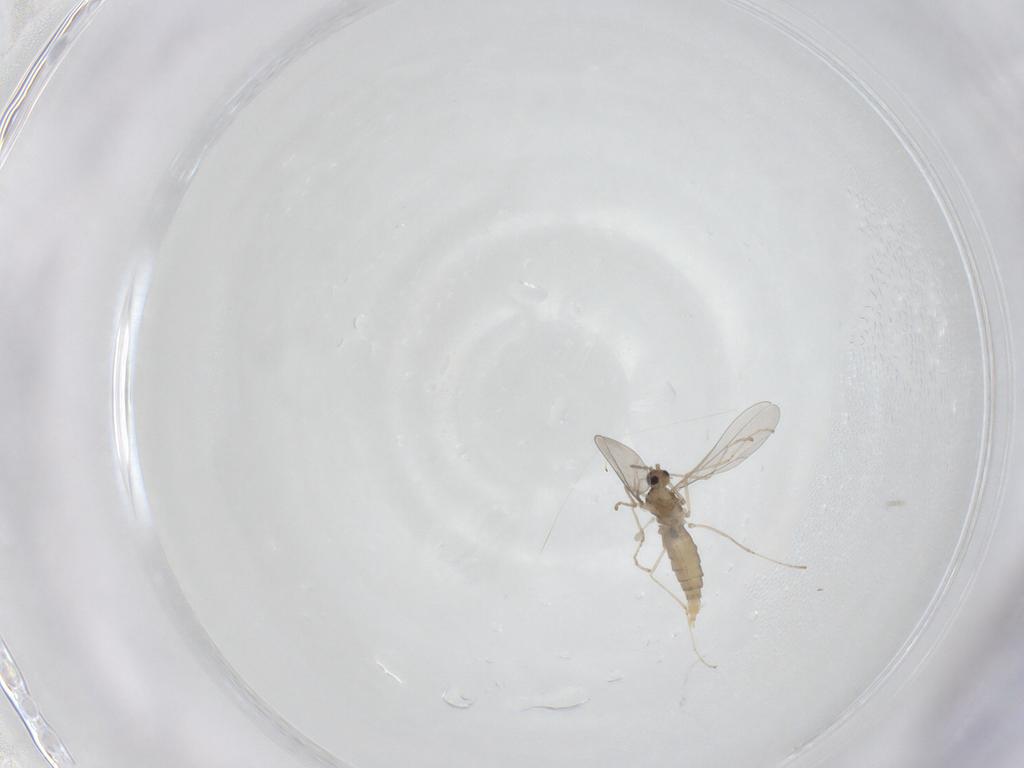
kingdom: Animalia
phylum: Arthropoda
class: Insecta
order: Diptera
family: Cecidomyiidae
